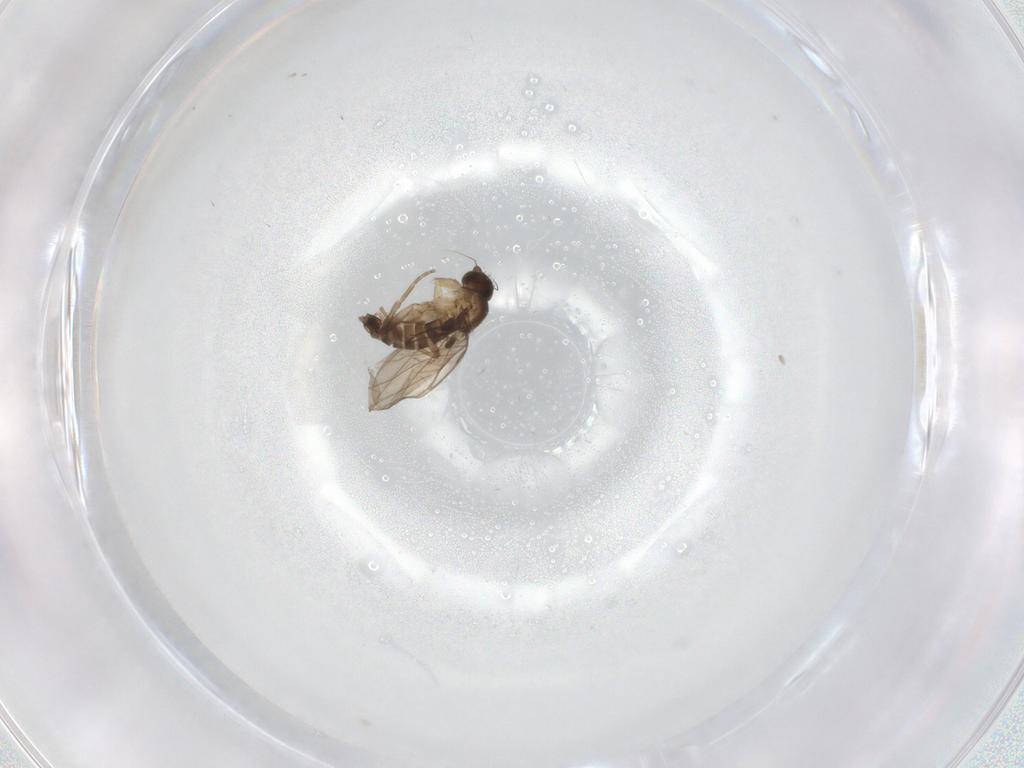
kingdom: Animalia
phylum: Arthropoda
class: Insecta
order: Diptera
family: Phoridae
